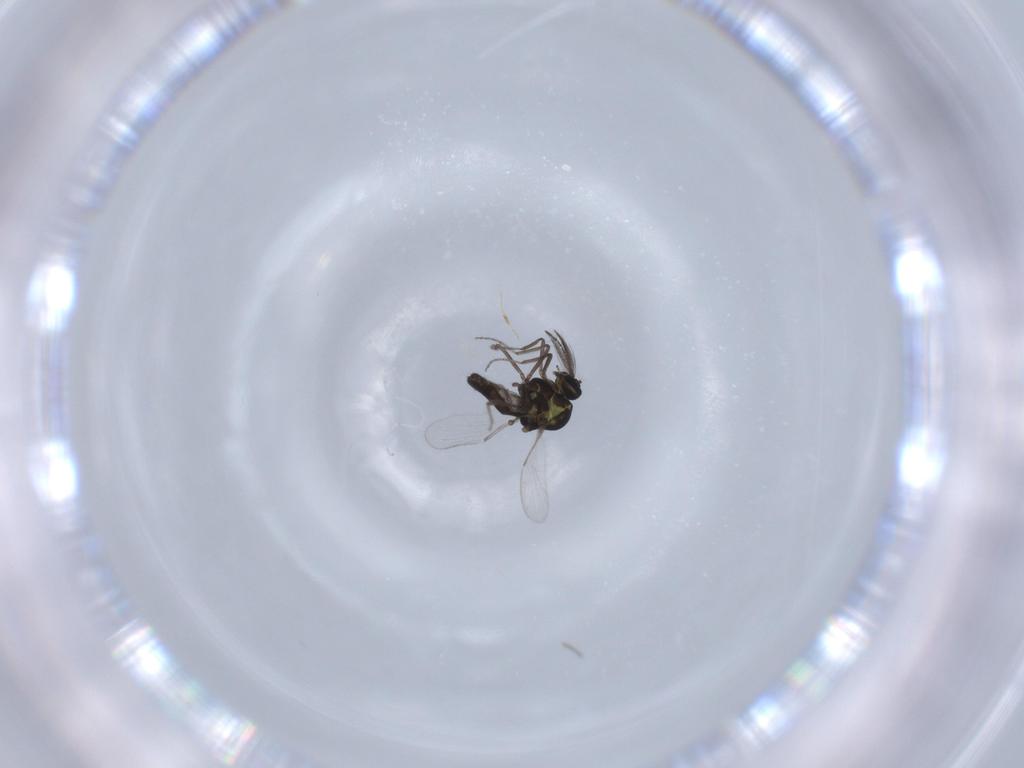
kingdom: Animalia
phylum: Arthropoda
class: Insecta
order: Diptera
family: Ceratopogonidae
